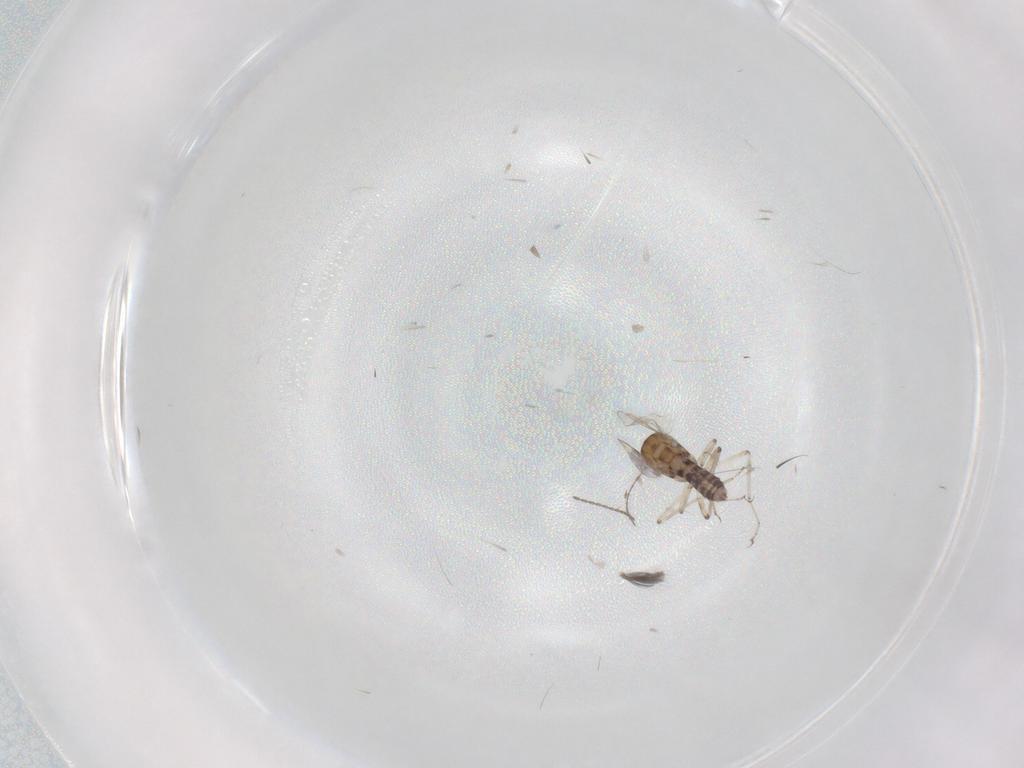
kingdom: Animalia
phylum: Arthropoda
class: Insecta
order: Diptera
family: Ceratopogonidae
